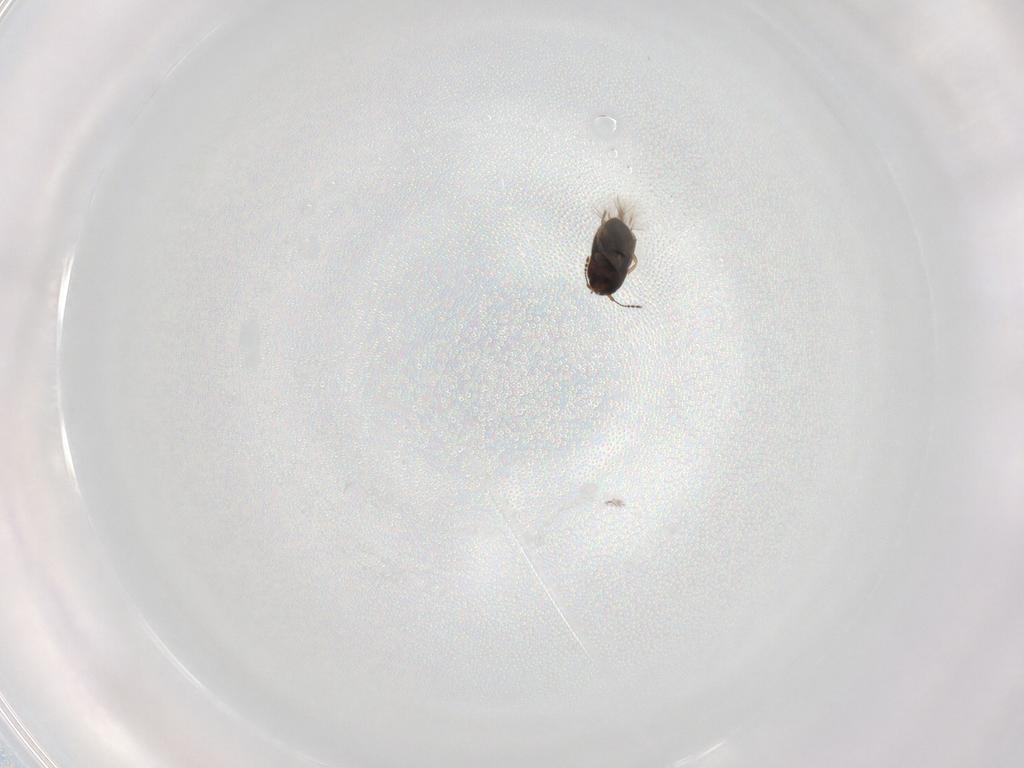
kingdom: Animalia
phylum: Arthropoda
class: Insecta
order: Coleoptera
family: Ptiliidae
